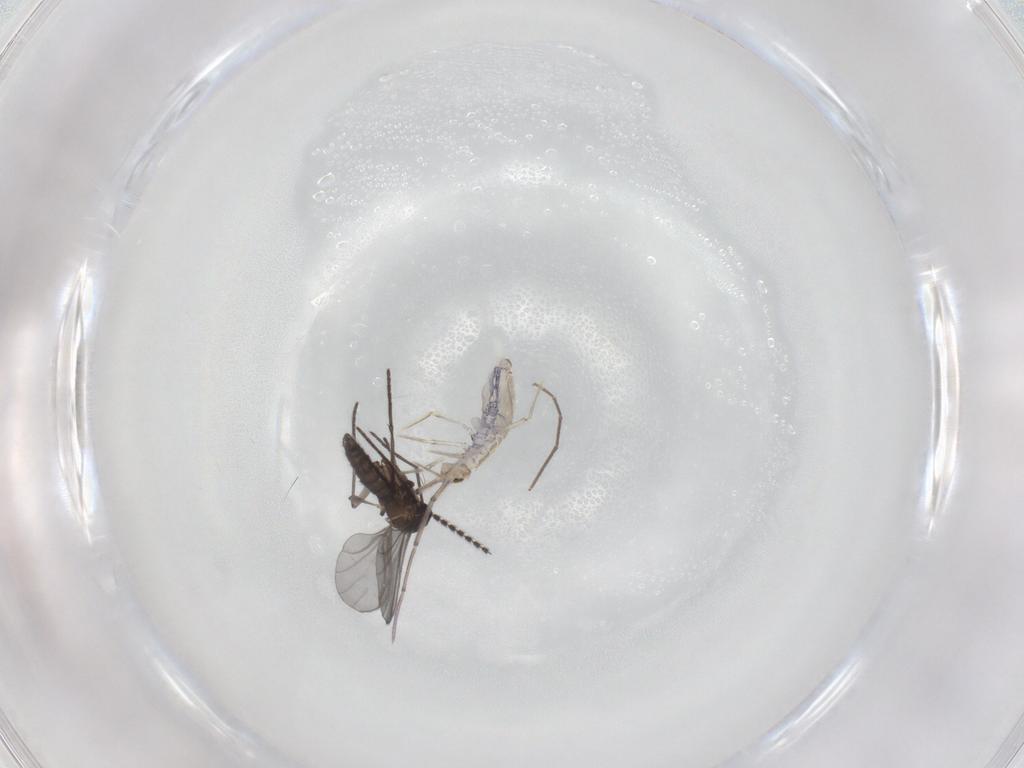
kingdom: Animalia
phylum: Arthropoda
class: Collembola
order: Entomobryomorpha
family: Entomobryidae
